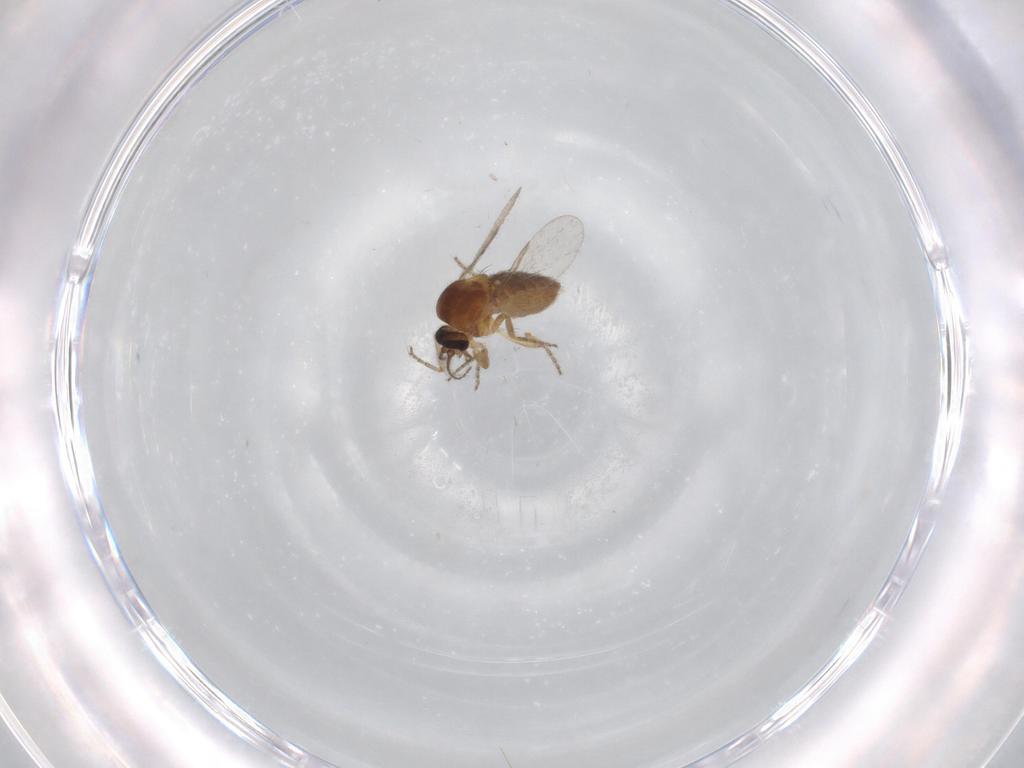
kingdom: Animalia
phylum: Arthropoda
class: Insecta
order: Diptera
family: Ceratopogonidae
